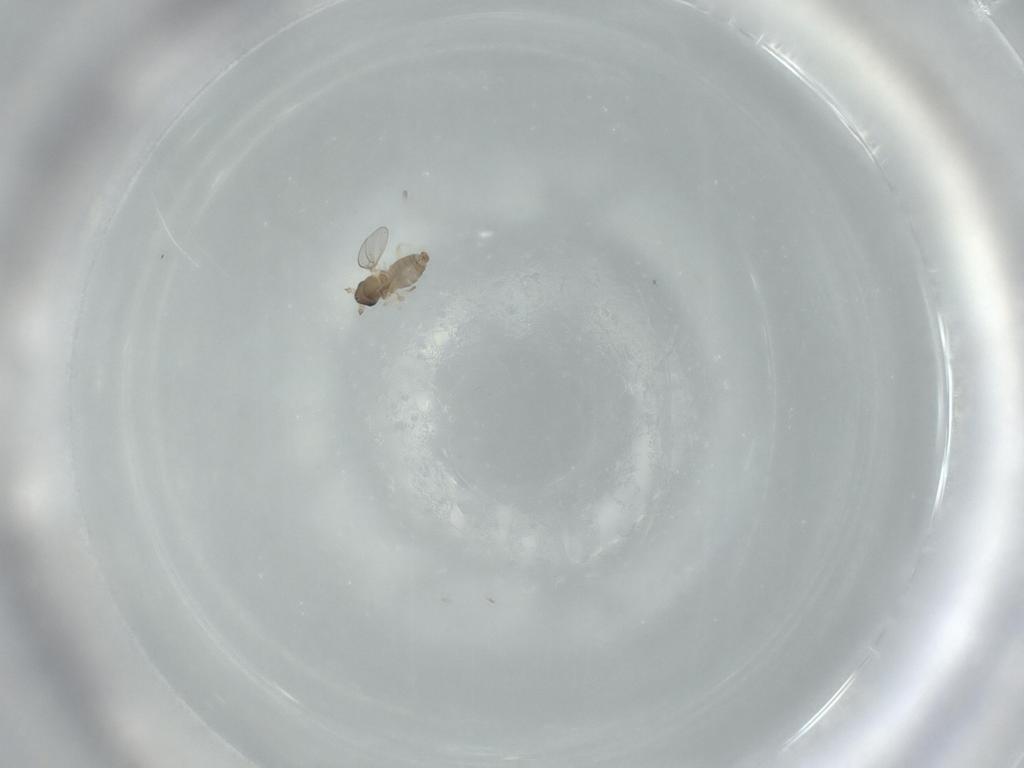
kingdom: Animalia
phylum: Arthropoda
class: Insecta
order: Diptera
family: Cecidomyiidae
